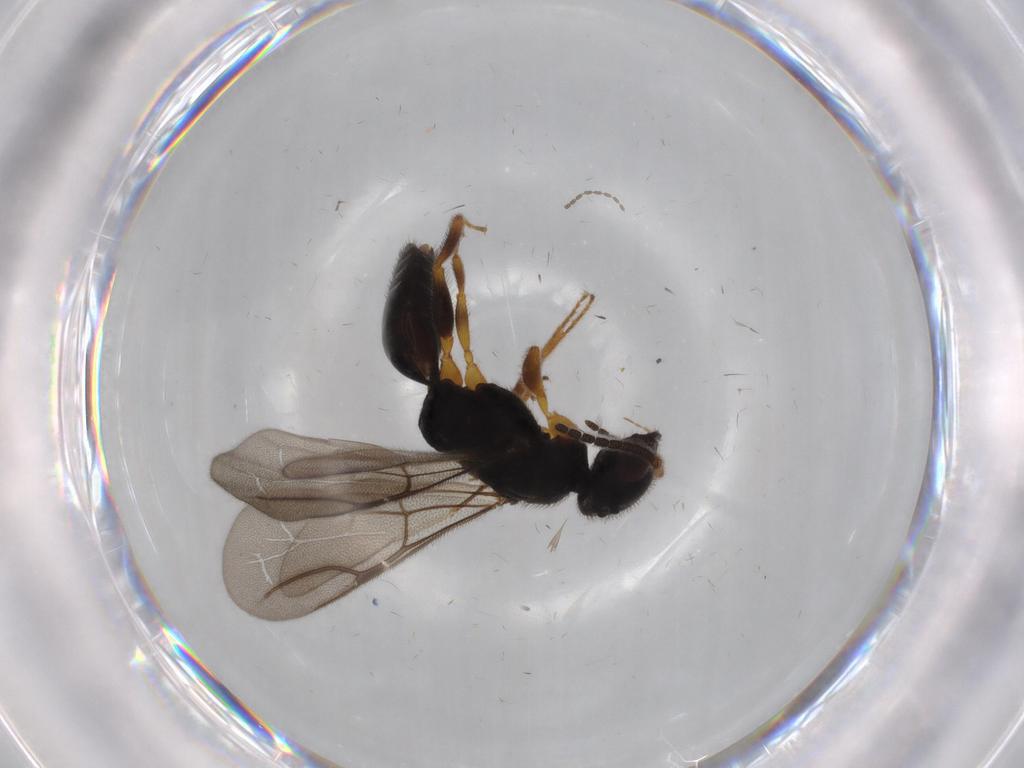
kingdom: Animalia
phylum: Arthropoda
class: Insecta
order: Hymenoptera
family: Bethylidae
